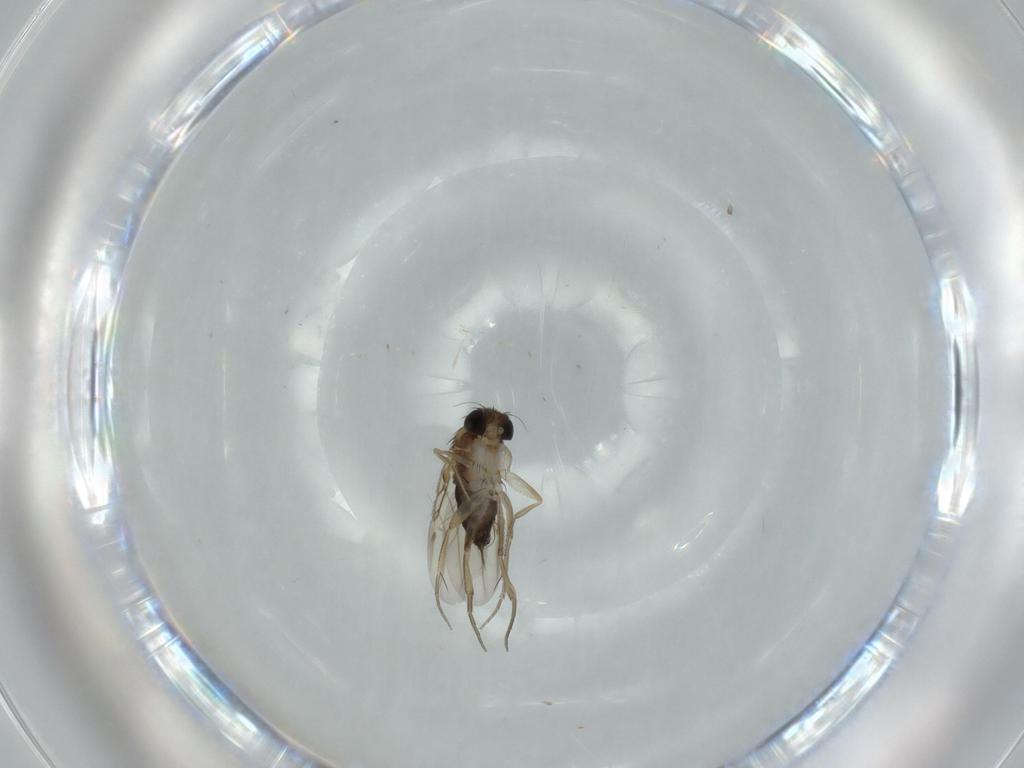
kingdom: Animalia
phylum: Arthropoda
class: Insecta
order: Diptera
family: Phoridae
